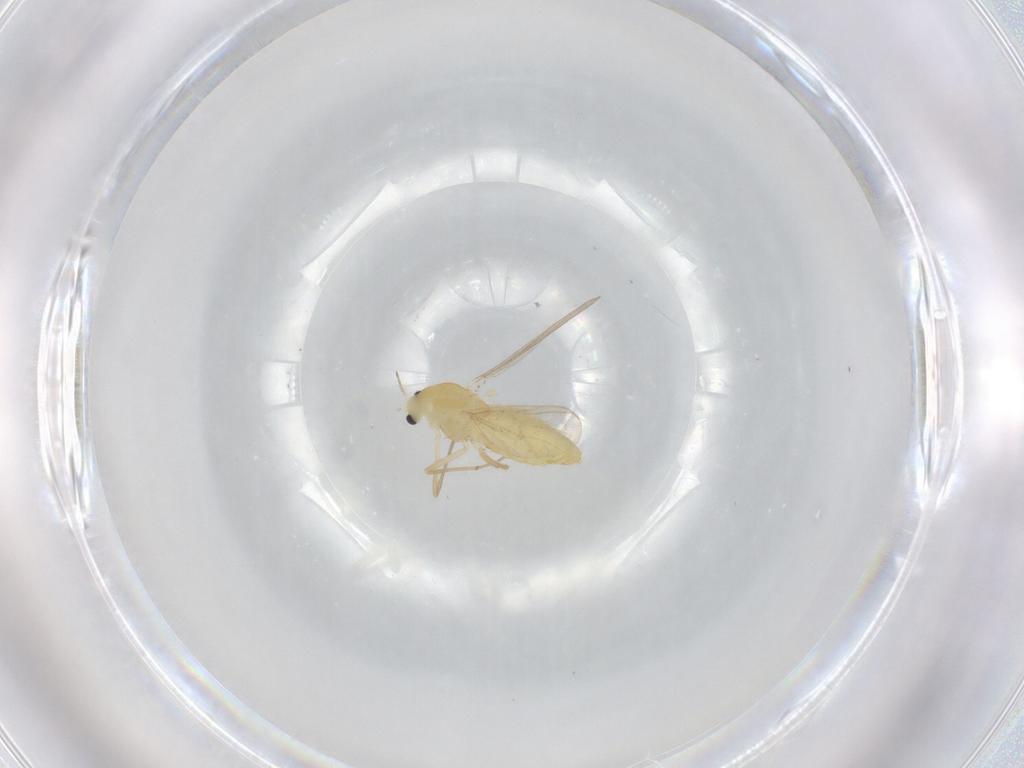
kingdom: Animalia
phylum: Arthropoda
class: Insecta
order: Diptera
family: Chironomidae
